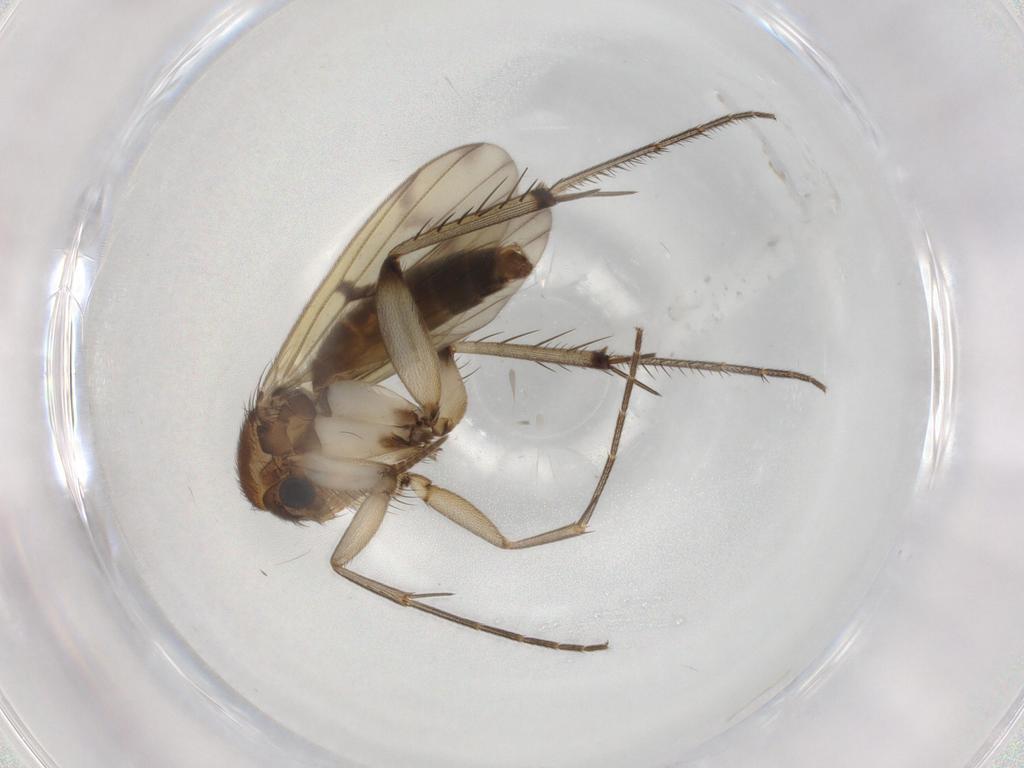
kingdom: Animalia
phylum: Arthropoda
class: Insecta
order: Diptera
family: Cecidomyiidae
